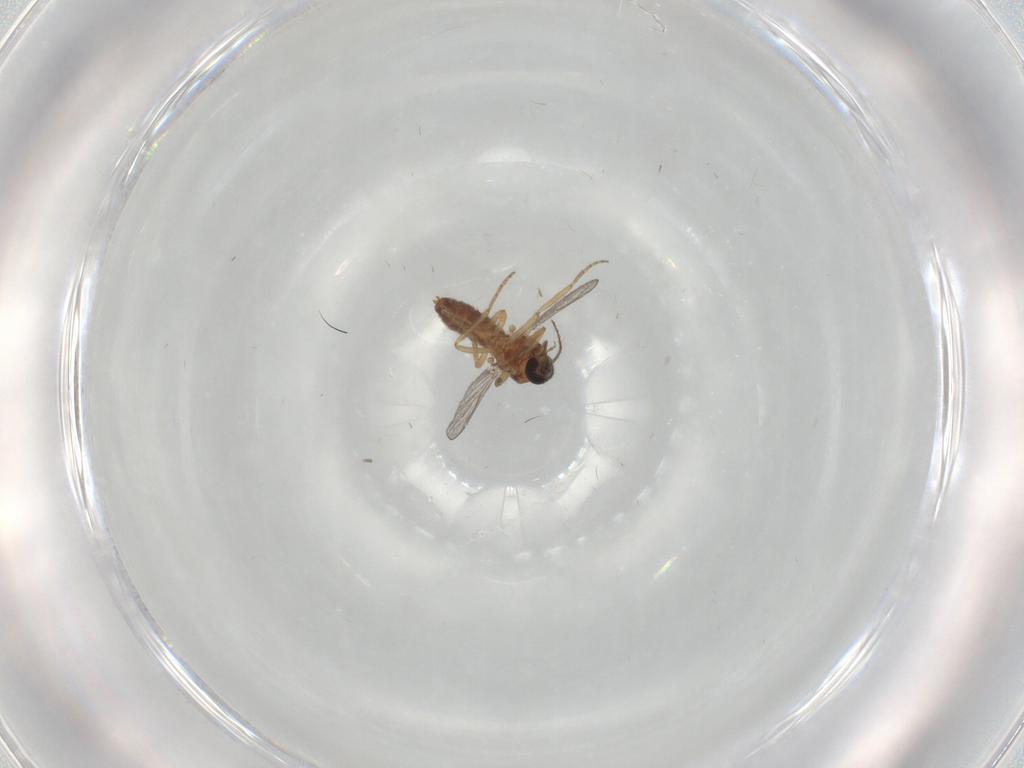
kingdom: Animalia
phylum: Arthropoda
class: Insecta
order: Diptera
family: Ceratopogonidae
